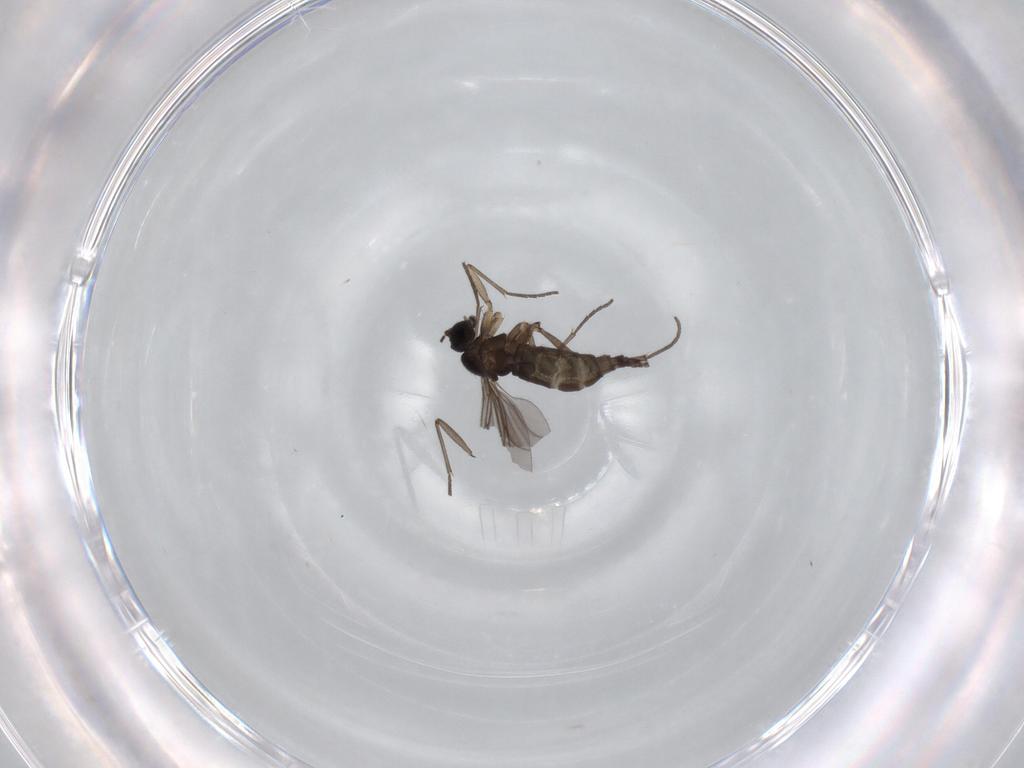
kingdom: Animalia
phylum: Arthropoda
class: Insecta
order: Diptera
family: Sciaridae
